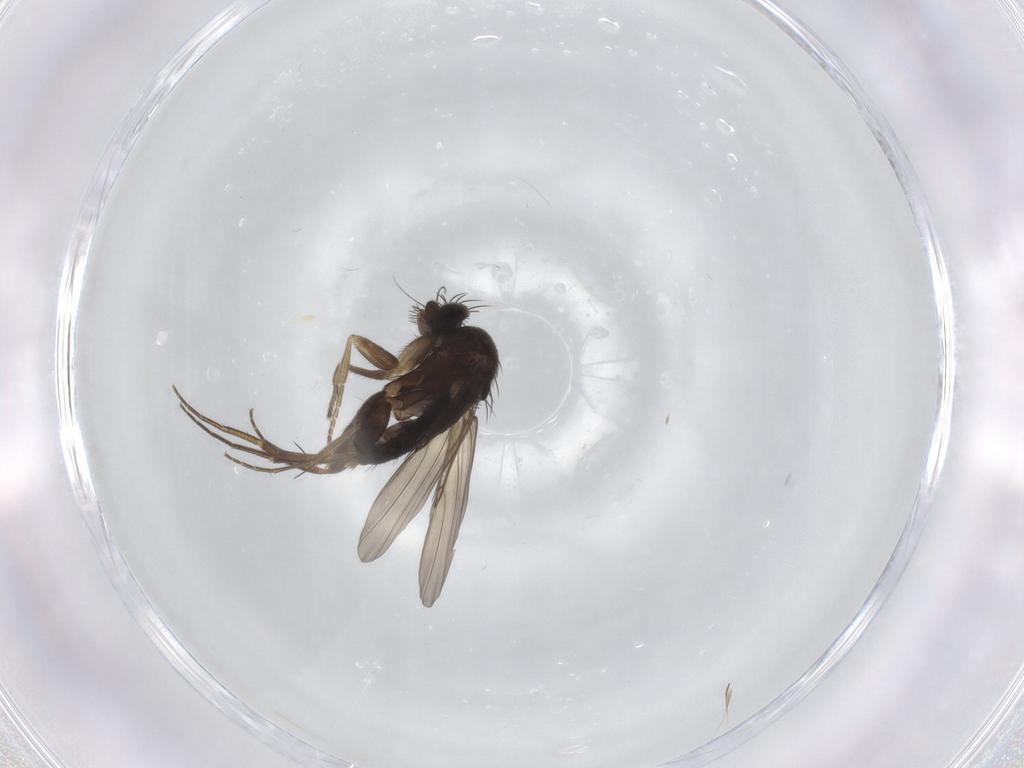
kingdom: Animalia
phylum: Arthropoda
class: Insecta
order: Diptera
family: Phoridae
